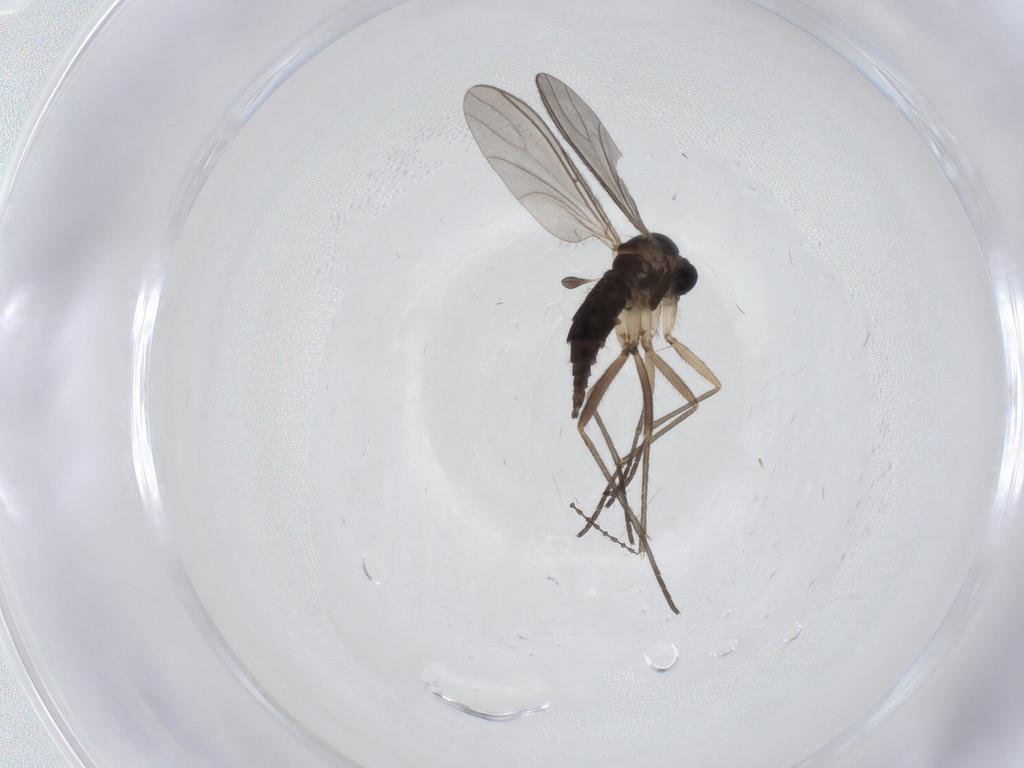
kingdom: Animalia
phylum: Arthropoda
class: Insecta
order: Diptera
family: Sciaridae
